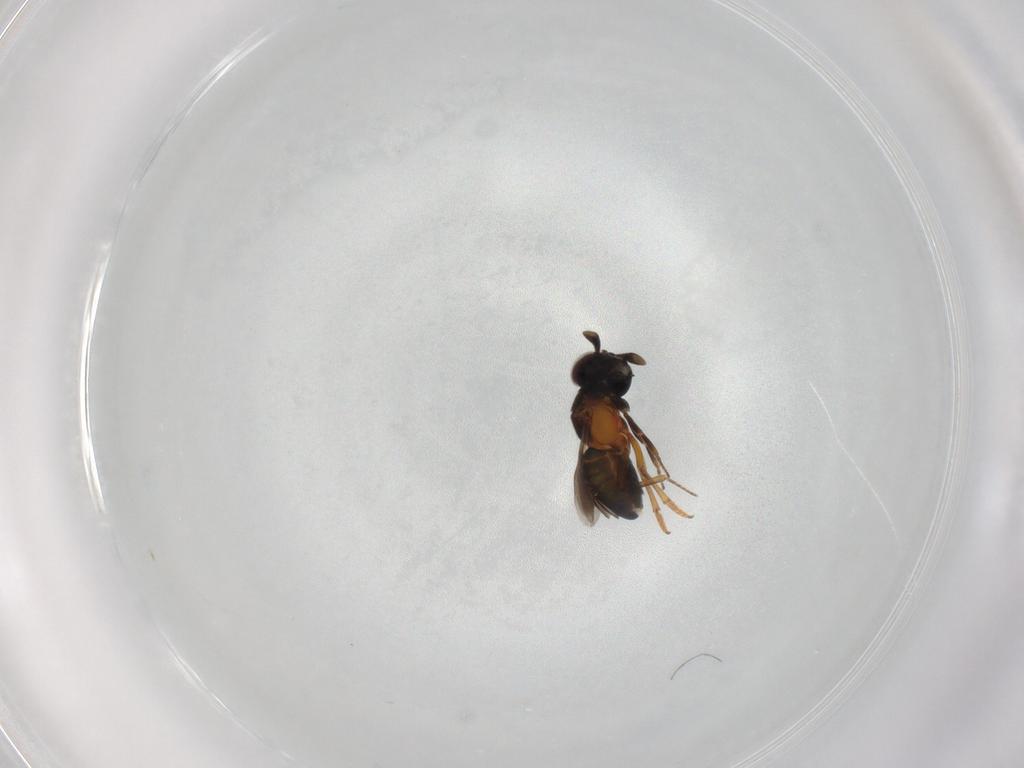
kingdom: Animalia
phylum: Arthropoda
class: Insecta
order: Hymenoptera
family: Encyrtidae
